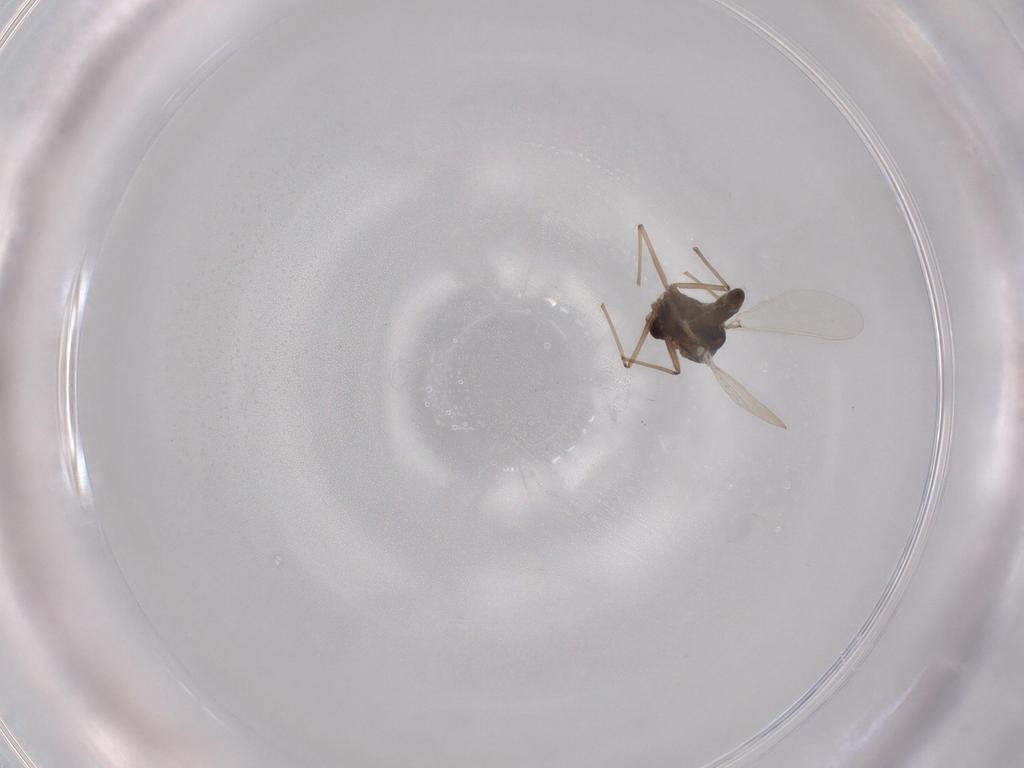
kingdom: Animalia
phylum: Arthropoda
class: Insecta
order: Diptera
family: Chironomidae
